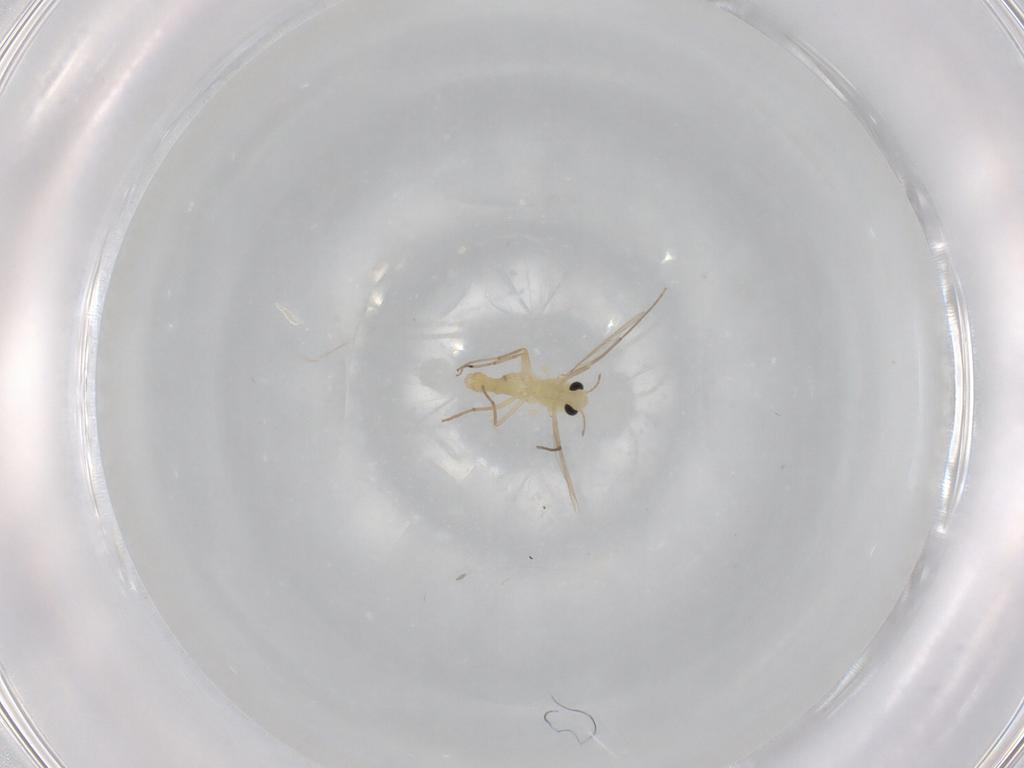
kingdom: Animalia
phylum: Arthropoda
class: Insecta
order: Diptera
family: Chironomidae
